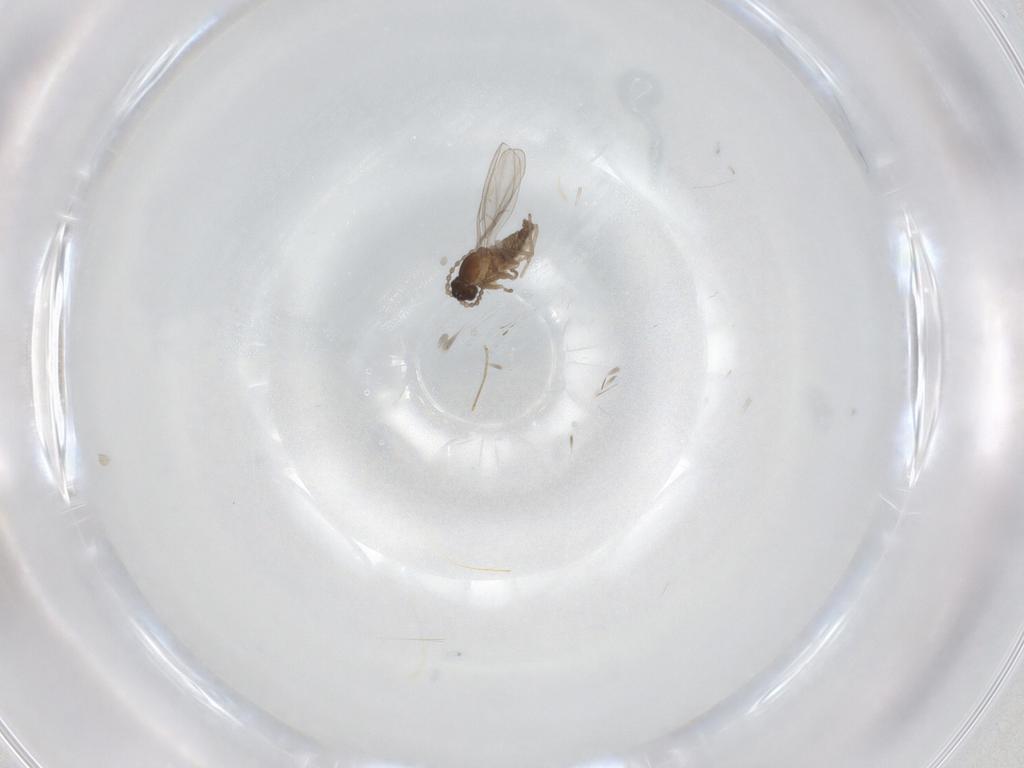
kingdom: Animalia
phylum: Arthropoda
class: Insecta
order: Diptera
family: Cecidomyiidae
